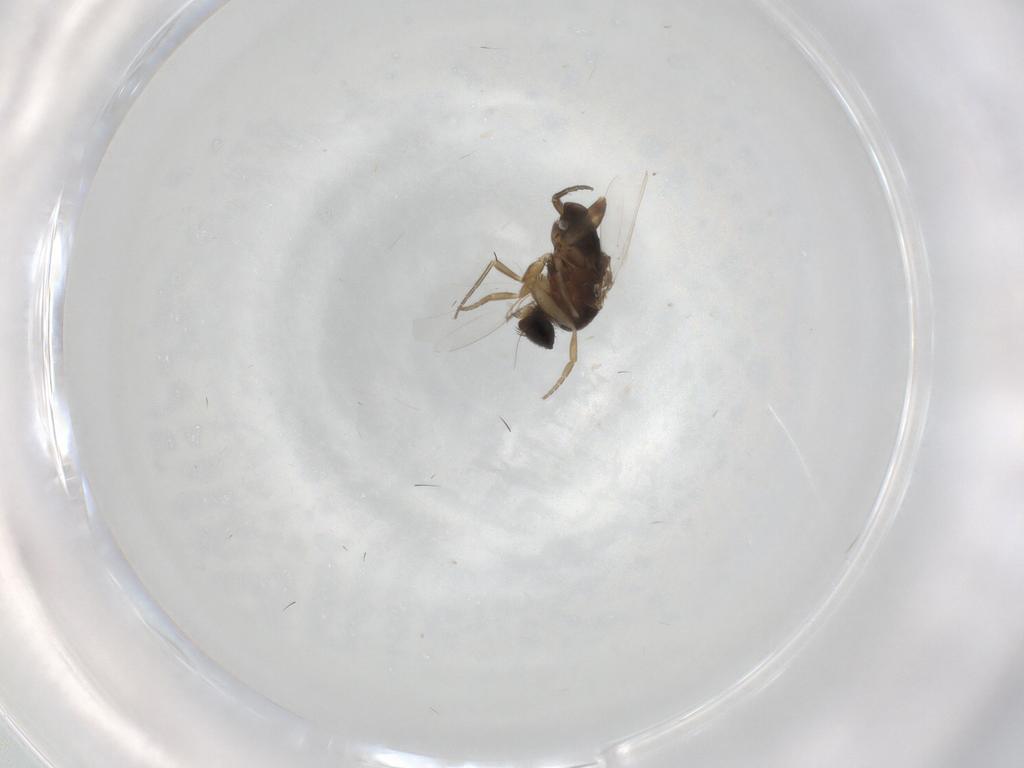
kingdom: Animalia
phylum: Arthropoda
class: Insecta
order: Diptera
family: Phoridae
